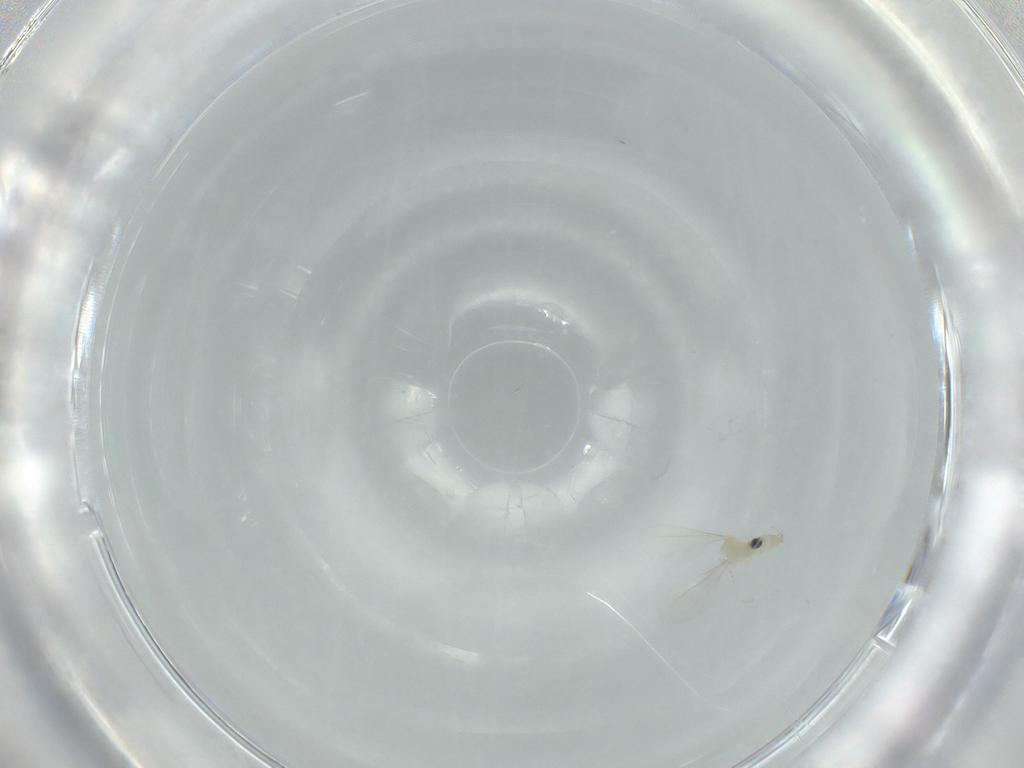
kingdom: Animalia
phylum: Arthropoda
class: Insecta
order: Diptera
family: Cecidomyiidae
